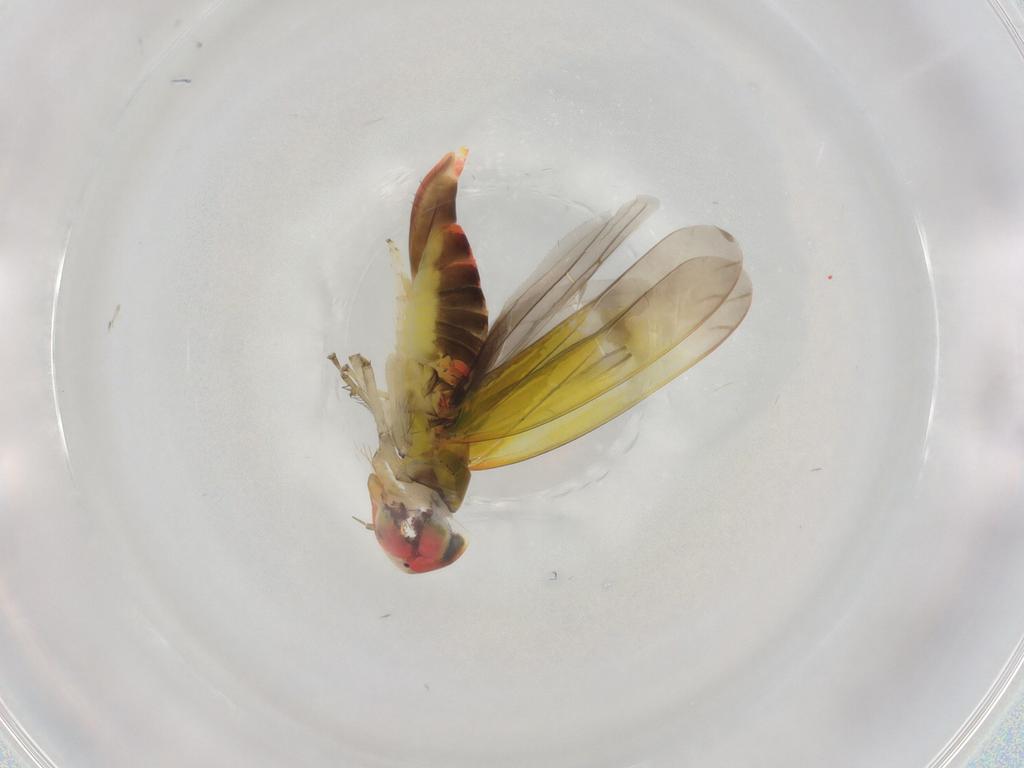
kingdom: Animalia
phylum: Arthropoda
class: Insecta
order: Hemiptera
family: Cicadellidae
